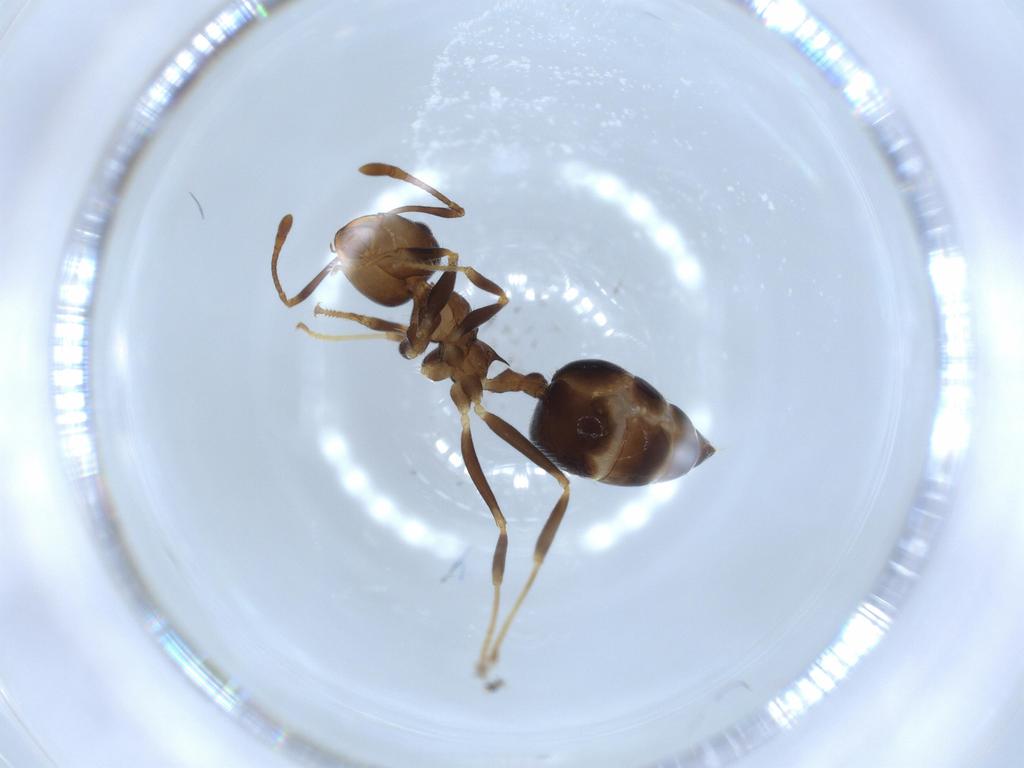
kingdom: Animalia
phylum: Arthropoda
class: Insecta
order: Hymenoptera
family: Formicidae
